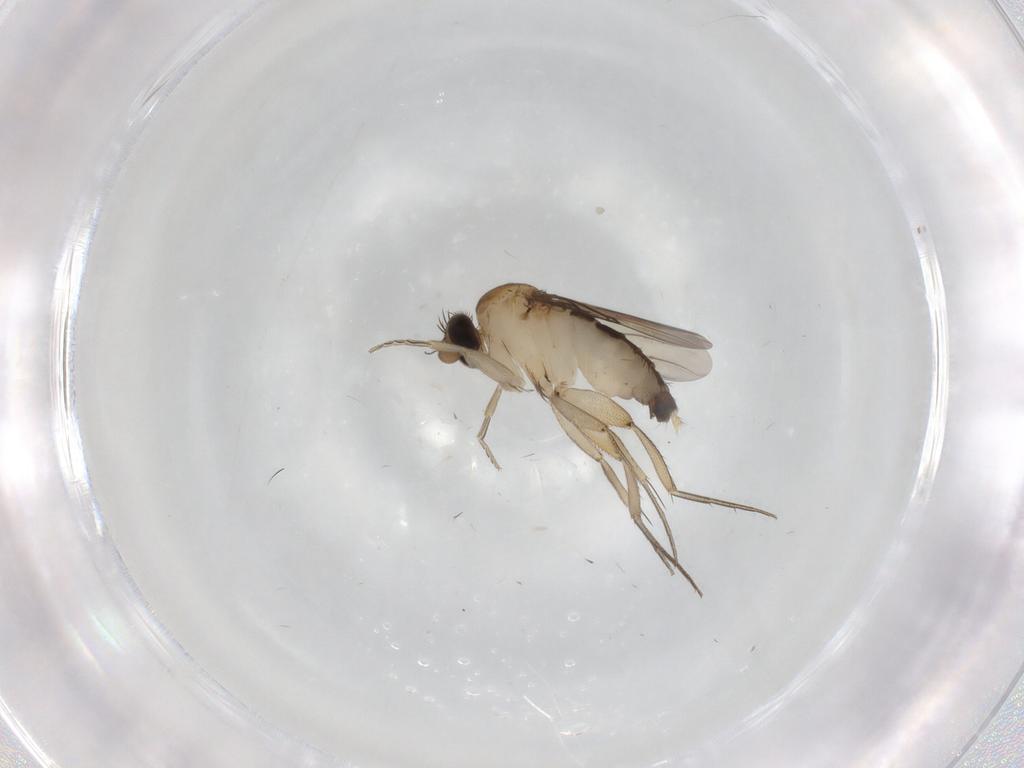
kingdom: Animalia
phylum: Arthropoda
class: Insecta
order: Diptera
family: Phoridae
